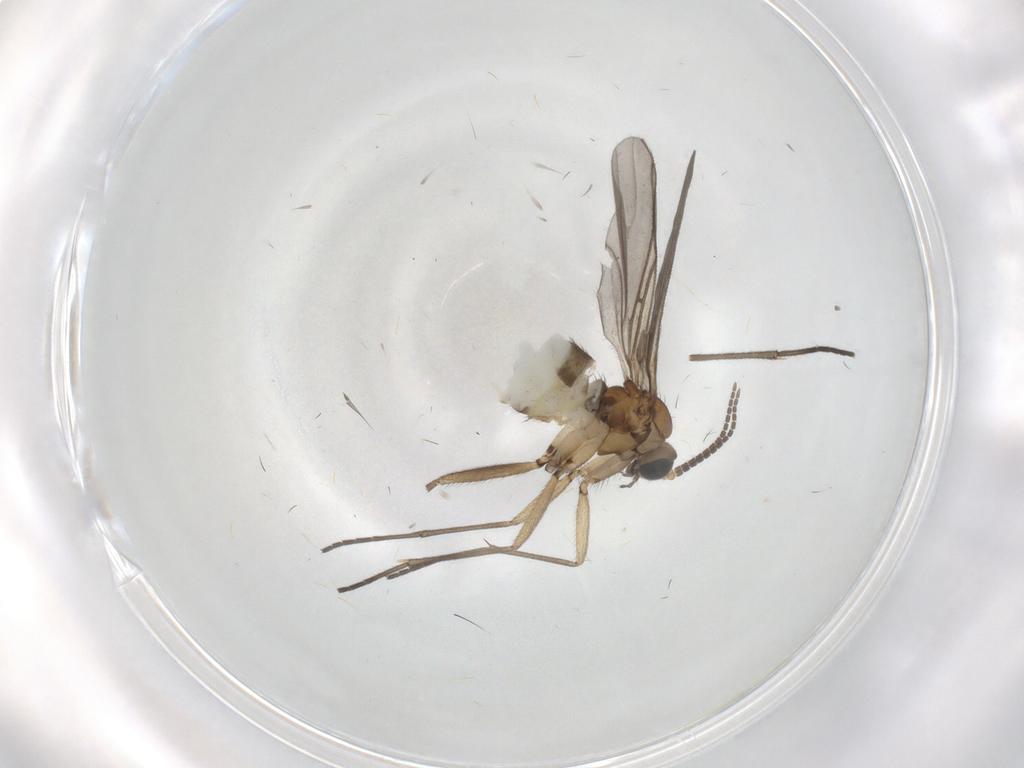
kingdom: Animalia
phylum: Arthropoda
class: Insecta
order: Diptera
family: Sciaridae
